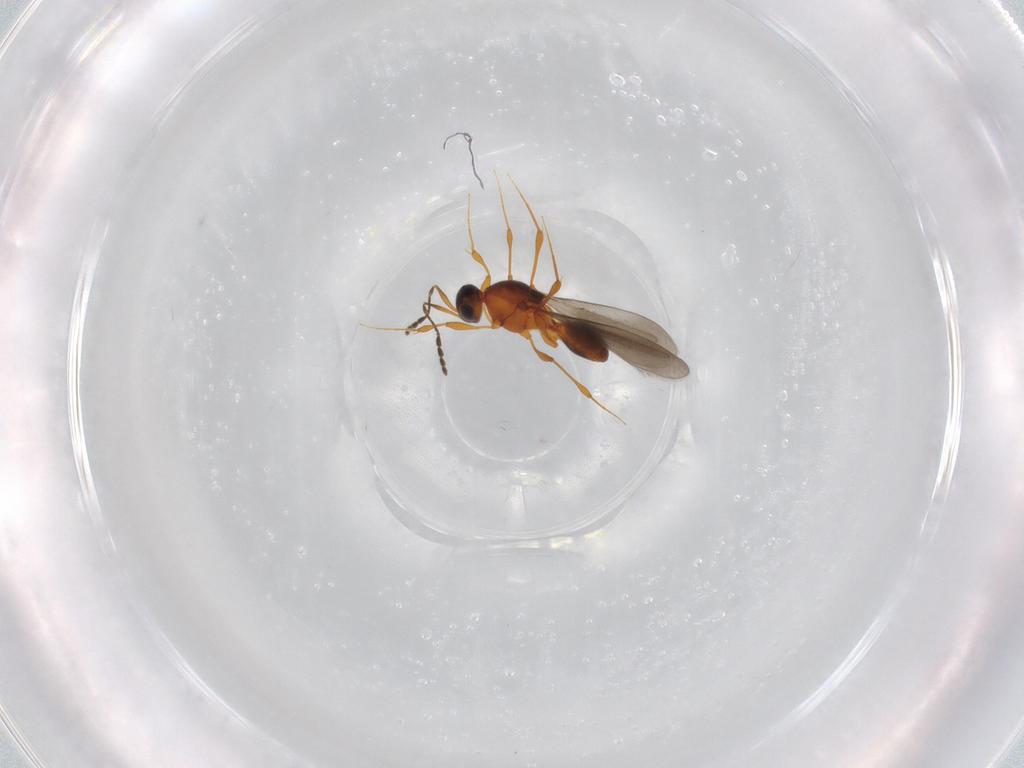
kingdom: Animalia
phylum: Arthropoda
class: Insecta
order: Hymenoptera
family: Platygastridae
